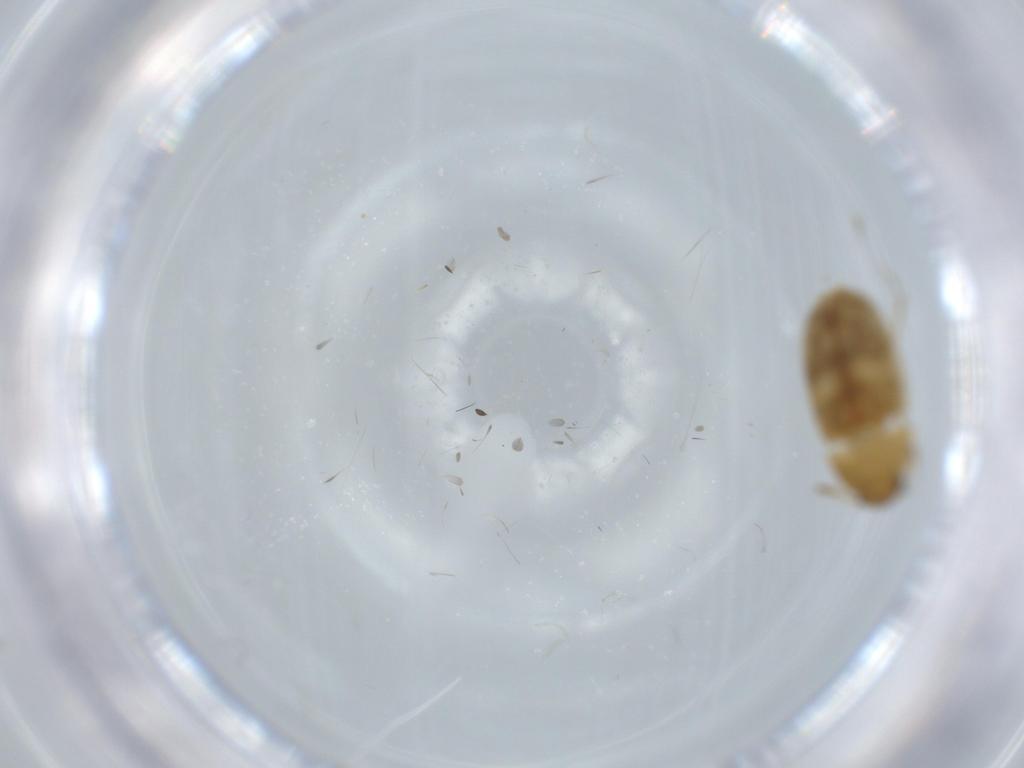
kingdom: Animalia
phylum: Arthropoda
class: Insecta
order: Coleoptera
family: Mycetophagidae
